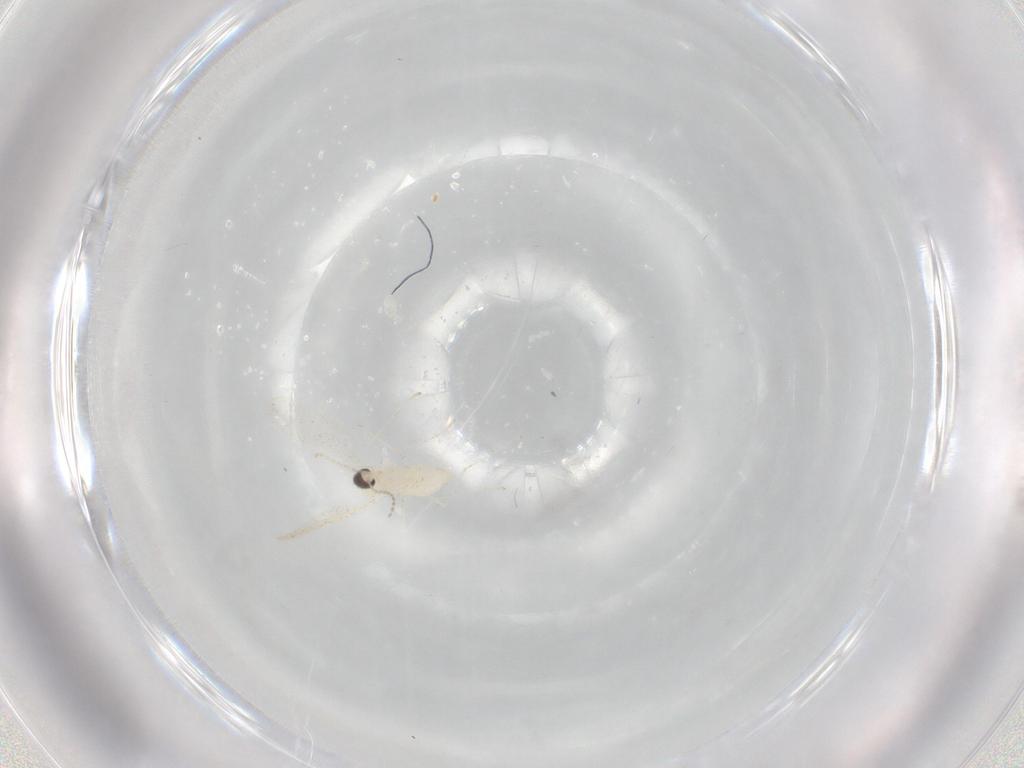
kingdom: Animalia
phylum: Arthropoda
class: Insecta
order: Diptera
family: Cecidomyiidae
